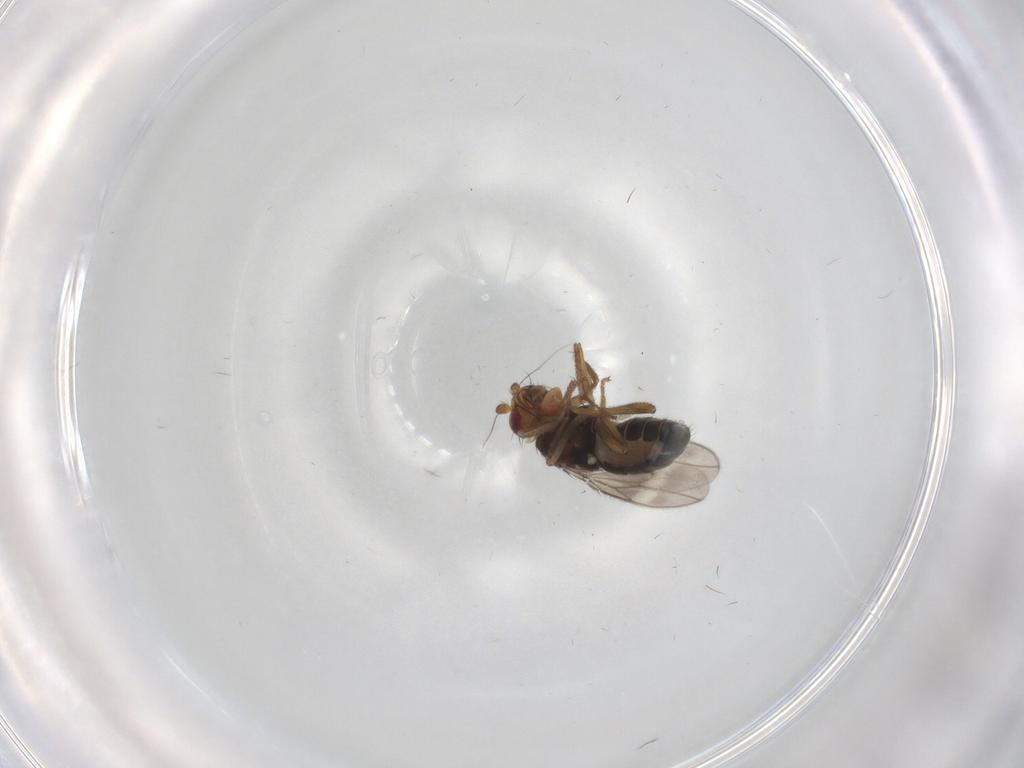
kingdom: Animalia
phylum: Arthropoda
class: Insecta
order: Diptera
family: Sphaeroceridae
